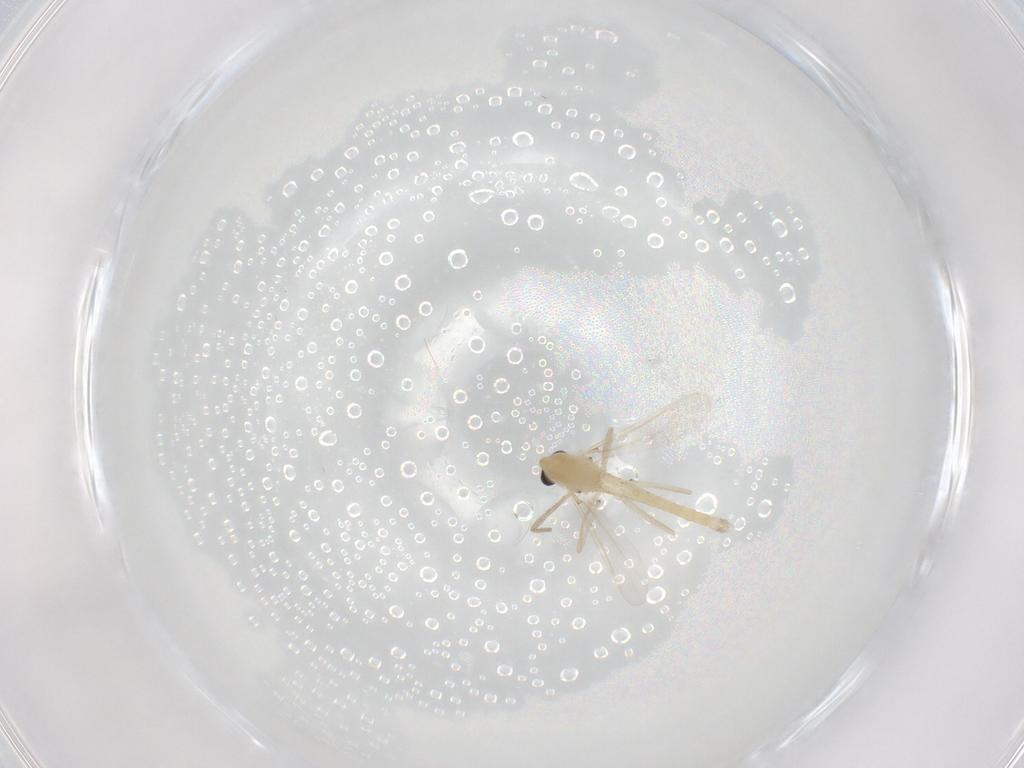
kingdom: Animalia
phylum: Arthropoda
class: Insecta
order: Diptera
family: Chironomidae
